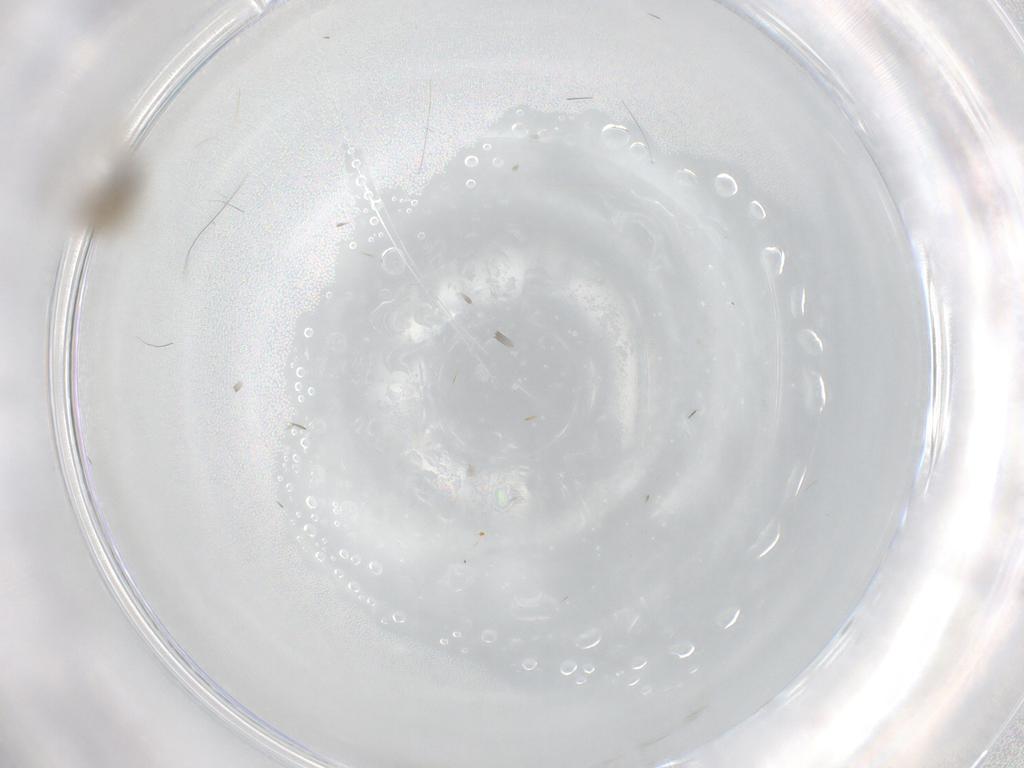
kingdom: Animalia
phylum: Arthropoda
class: Insecta
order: Diptera
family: Cecidomyiidae
